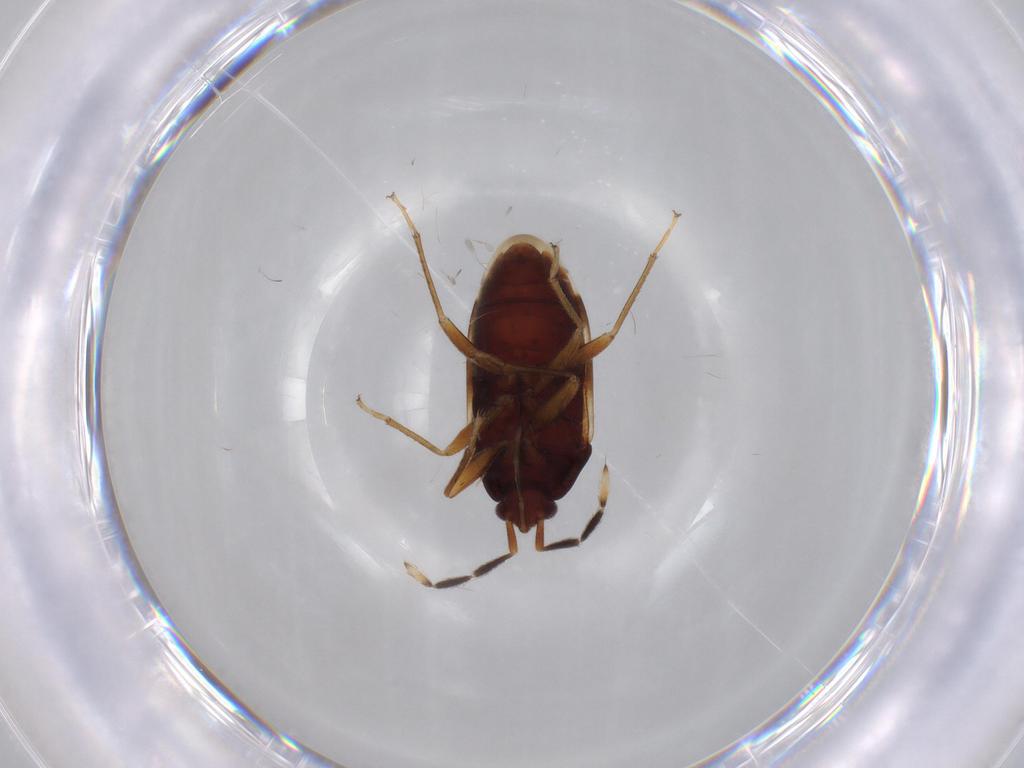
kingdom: Animalia
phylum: Arthropoda
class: Insecta
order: Hemiptera
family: Rhyparochromidae
